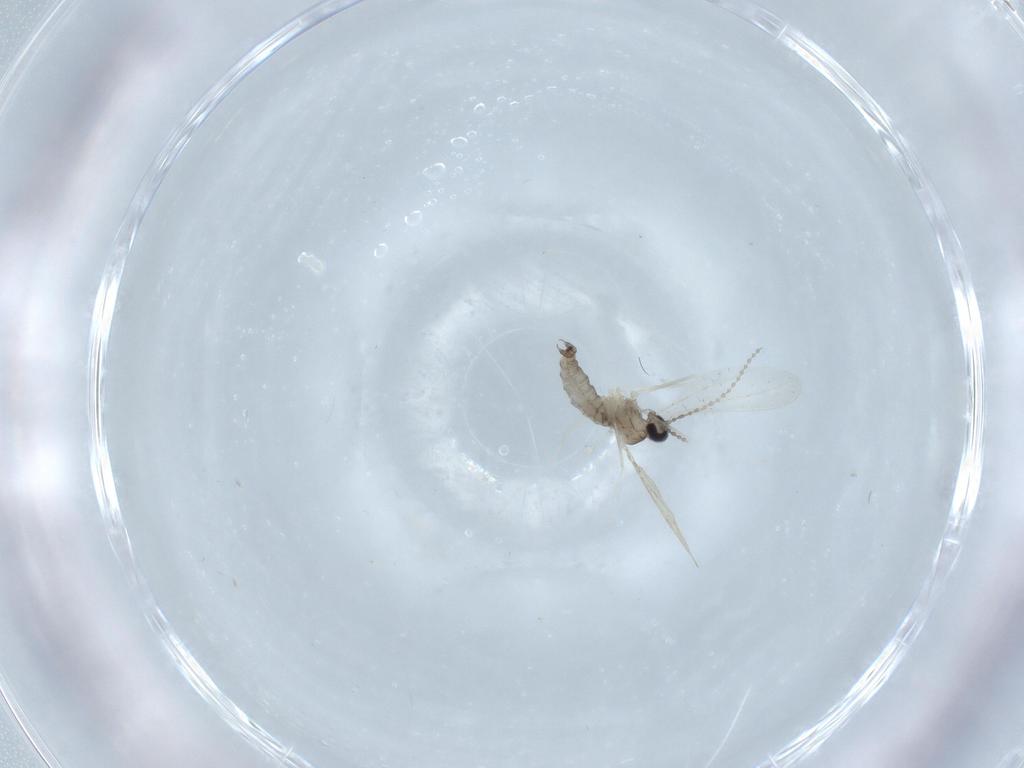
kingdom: Animalia
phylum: Arthropoda
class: Insecta
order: Diptera
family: Cecidomyiidae
